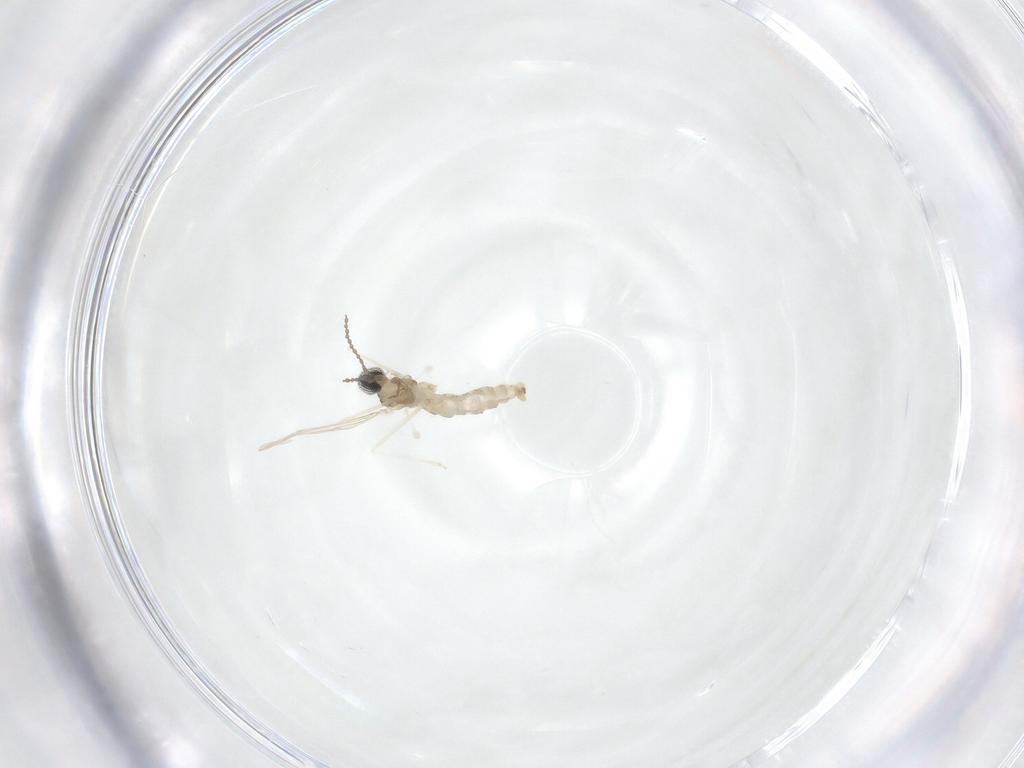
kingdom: Animalia
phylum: Arthropoda
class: Insecta
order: Diptera
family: Cecidomyiidae
